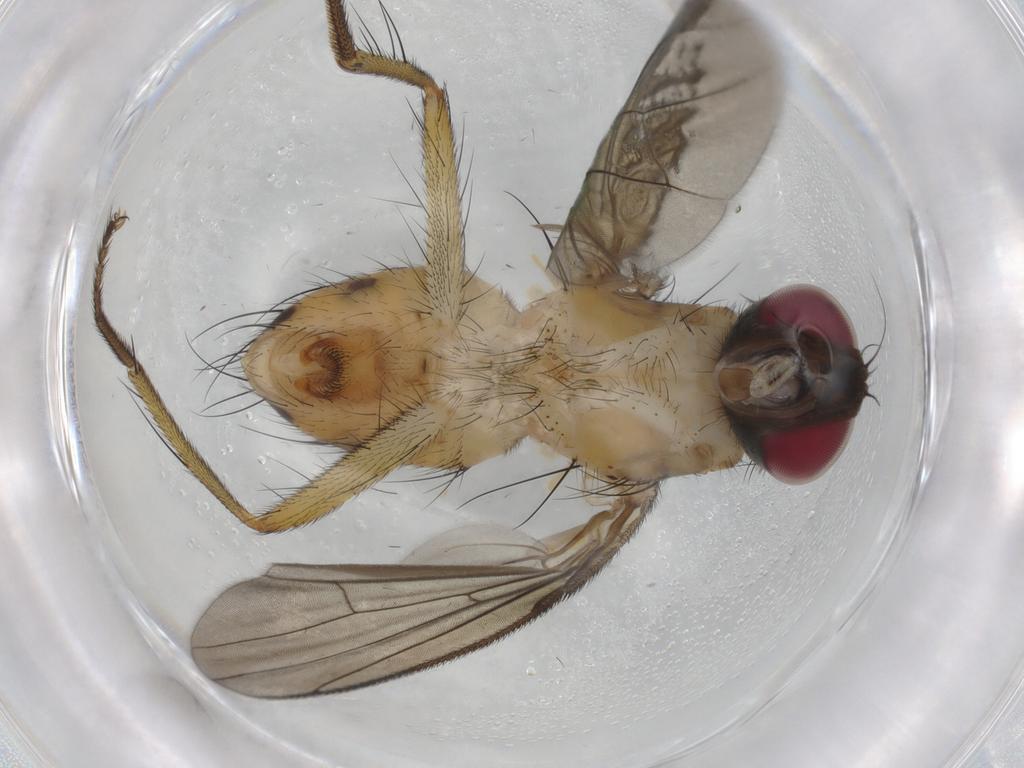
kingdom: Animalia
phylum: Arthropoda
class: Insecta
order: Diptera
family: Muscidae
